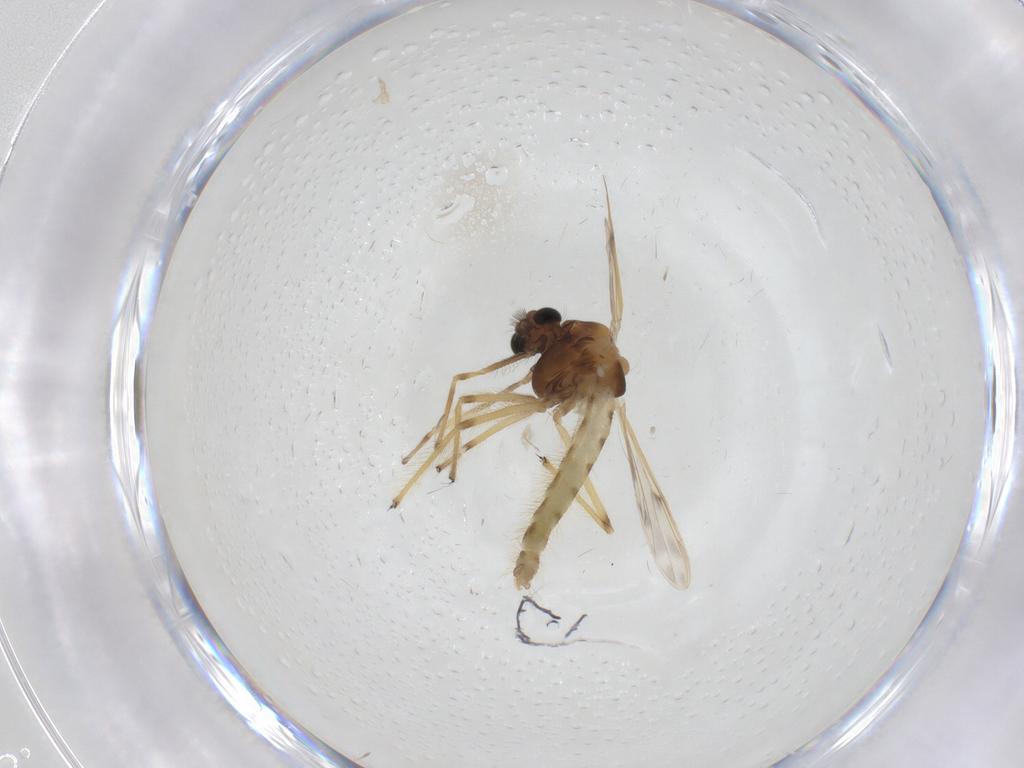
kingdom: Animalia
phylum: Arthropoda
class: Insecta
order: Diptera
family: Chironomidae
